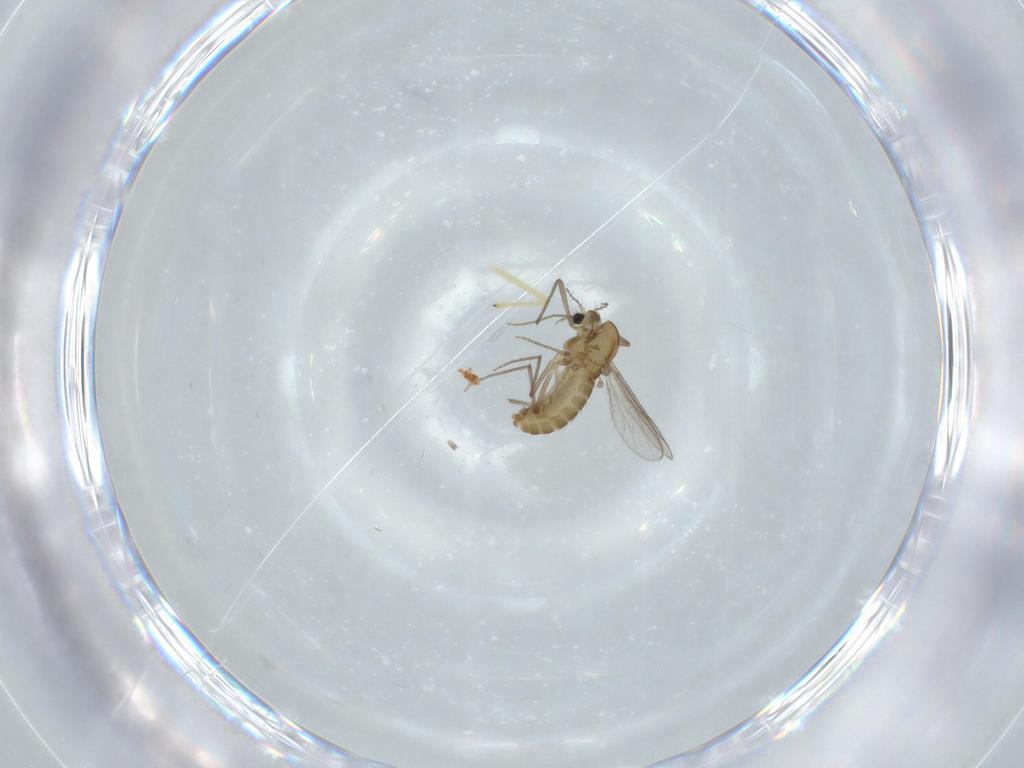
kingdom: Animalia
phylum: Arthropoda
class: Insecta
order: Diptera
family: Chironomidae
